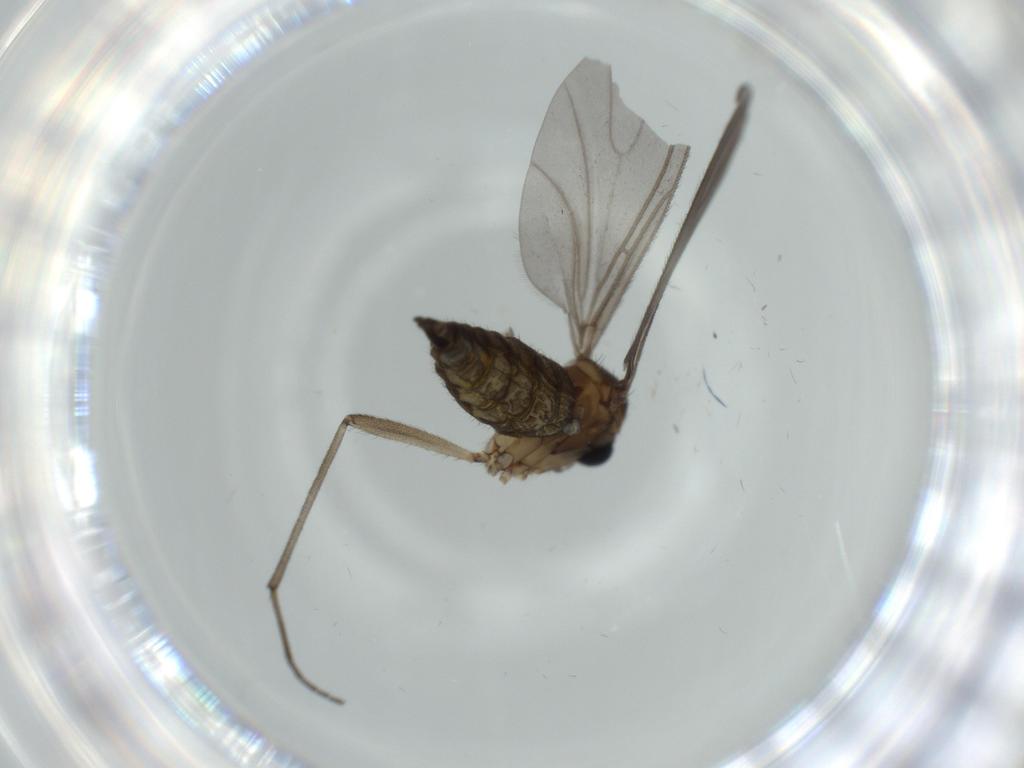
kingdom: Animalia
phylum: Arthropoda
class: Insecta
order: Diptera
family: Sciaridae
